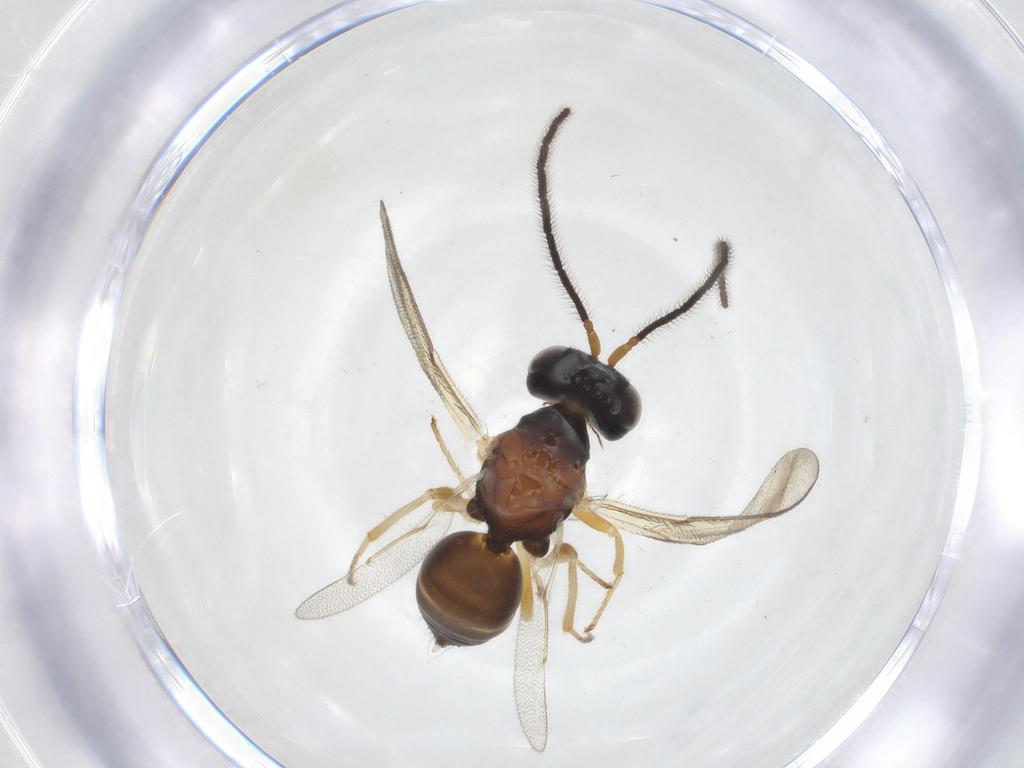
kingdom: Animalia
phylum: Arthropoda
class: Insecta
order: Hymenoptera
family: Diparidae
